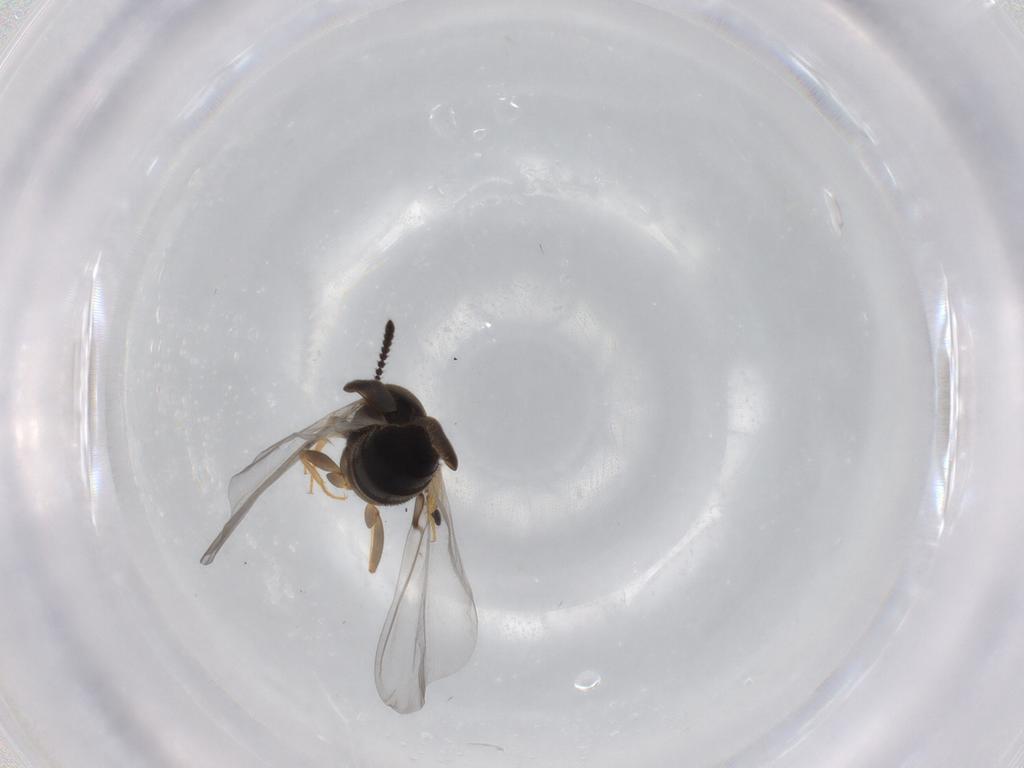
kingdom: Animalia
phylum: Arthropoda
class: Insecta
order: Coleoptera
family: Staphylinidae
